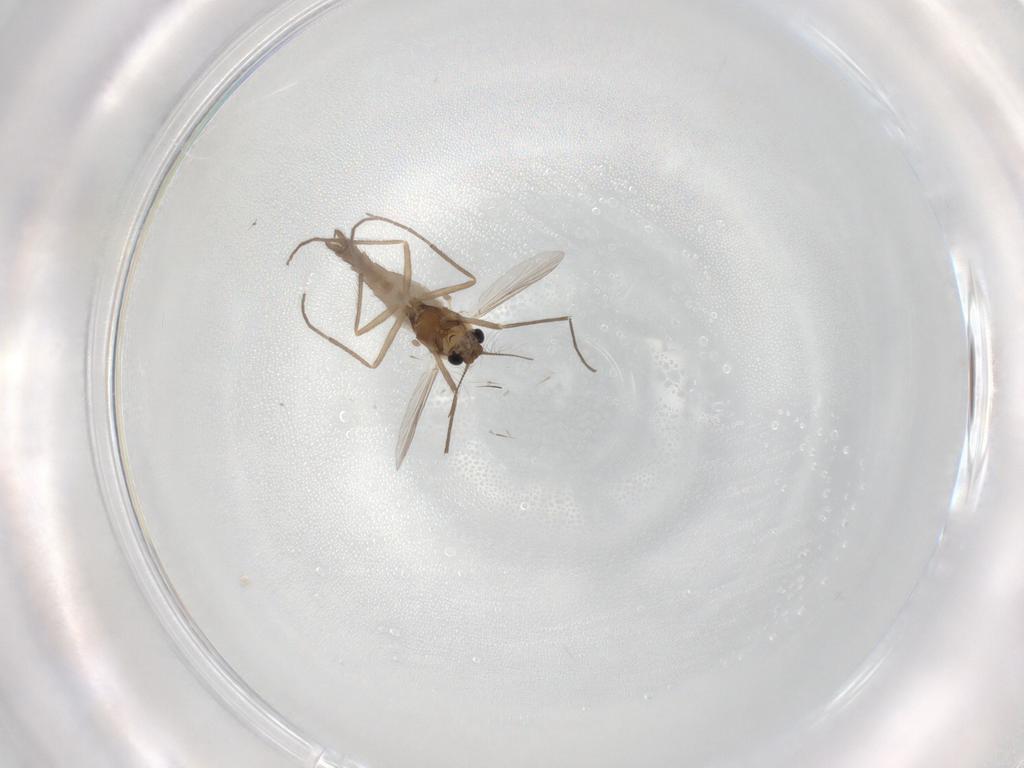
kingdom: Animalia
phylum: Arthropoda
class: Insecta
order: Diptera
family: Chironomidae
